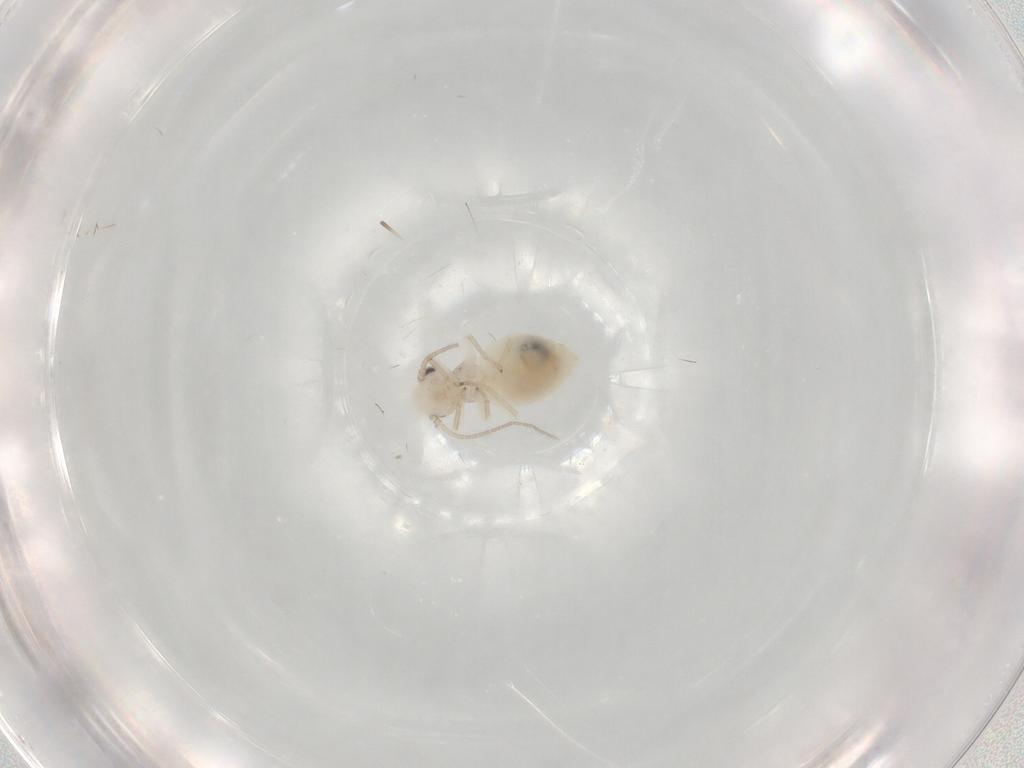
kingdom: Animalia
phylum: Arthropoda
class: Insecta
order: Psocodea
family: Caeciliusidae
